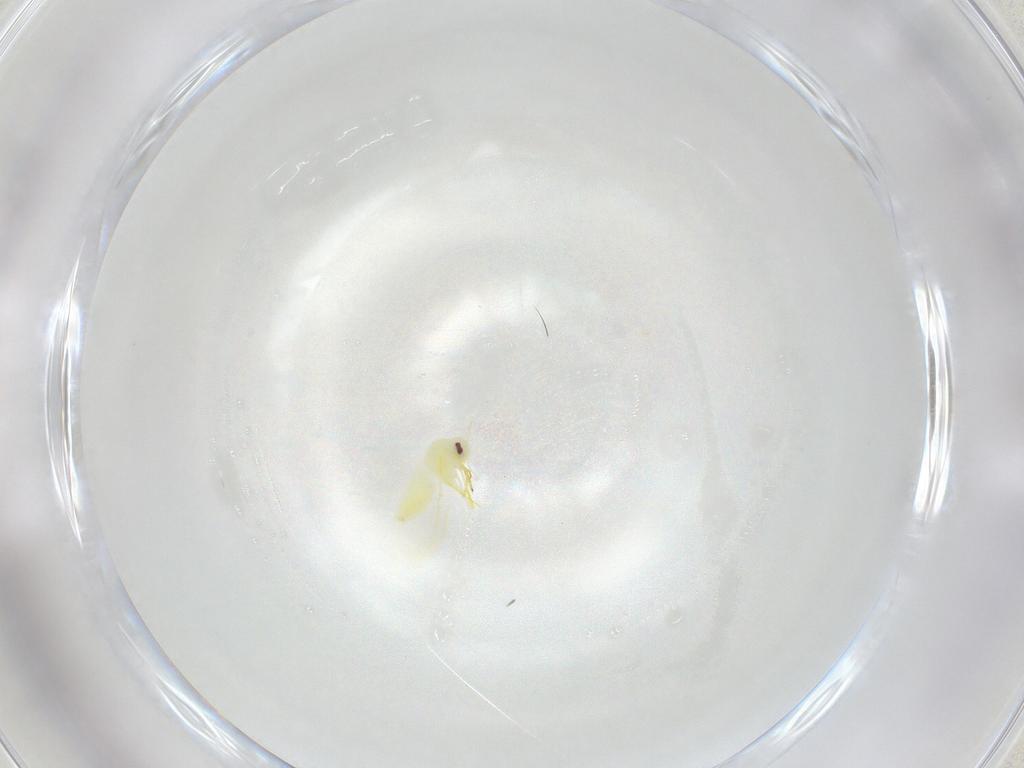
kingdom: Animalia
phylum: Arthropoda
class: Insecta
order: Hemiptera
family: Aleyrodidae
